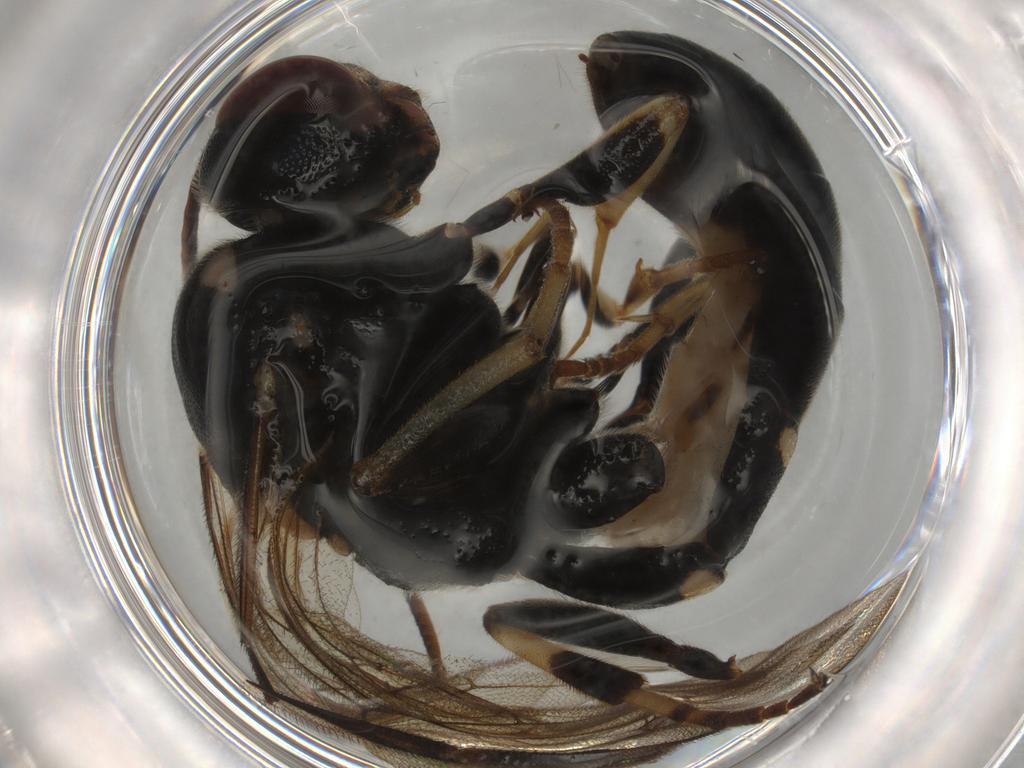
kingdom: Animalia
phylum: Arthropoda
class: Insecta
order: Hymenoptera
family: Ichneumonidae
